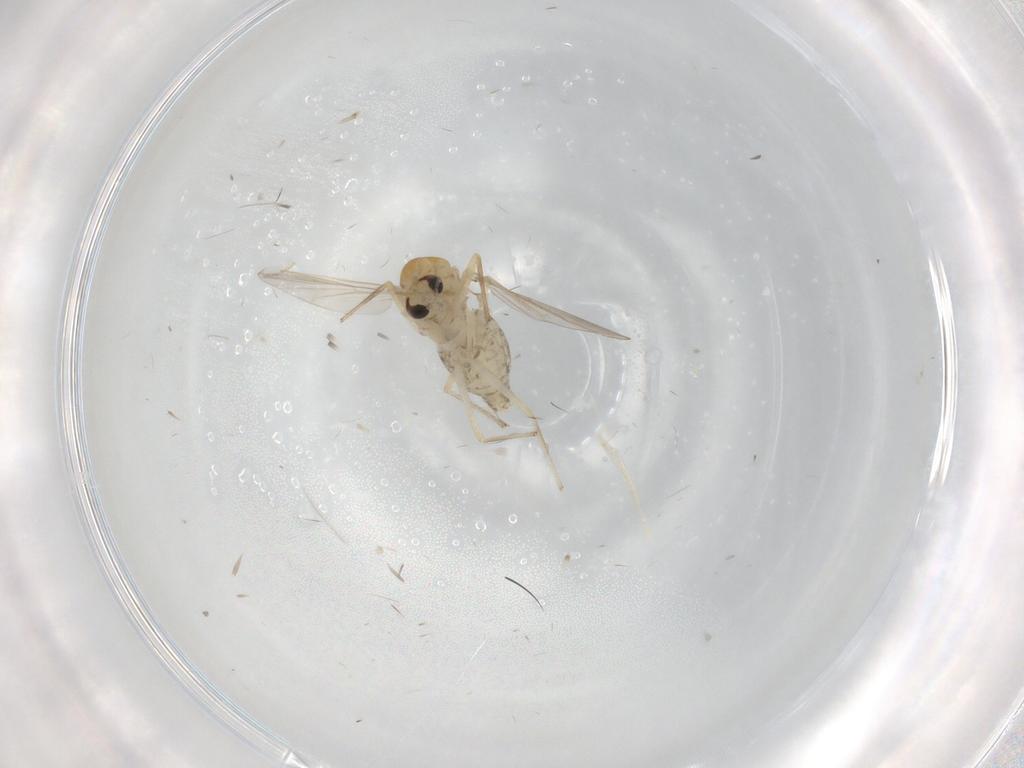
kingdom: Animalia
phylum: Arthropoda
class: Insecta
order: Diptera
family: Chironomidae
